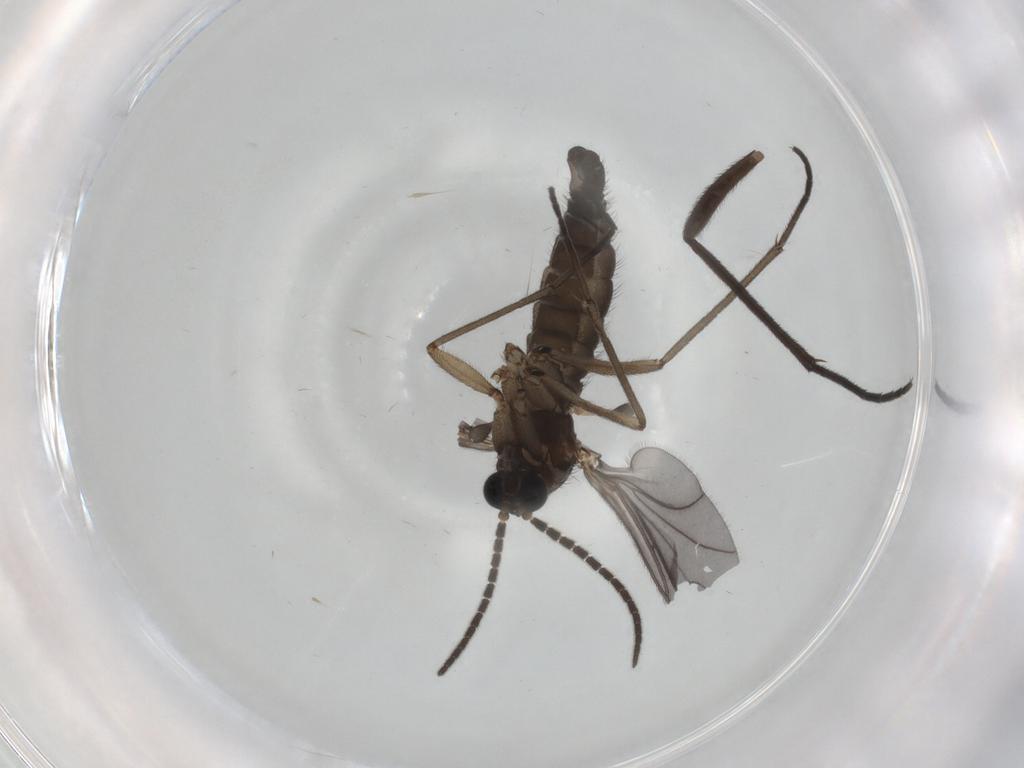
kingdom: Animalia
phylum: Arthropoda
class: Insecta
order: Diptera
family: Sciaridae
